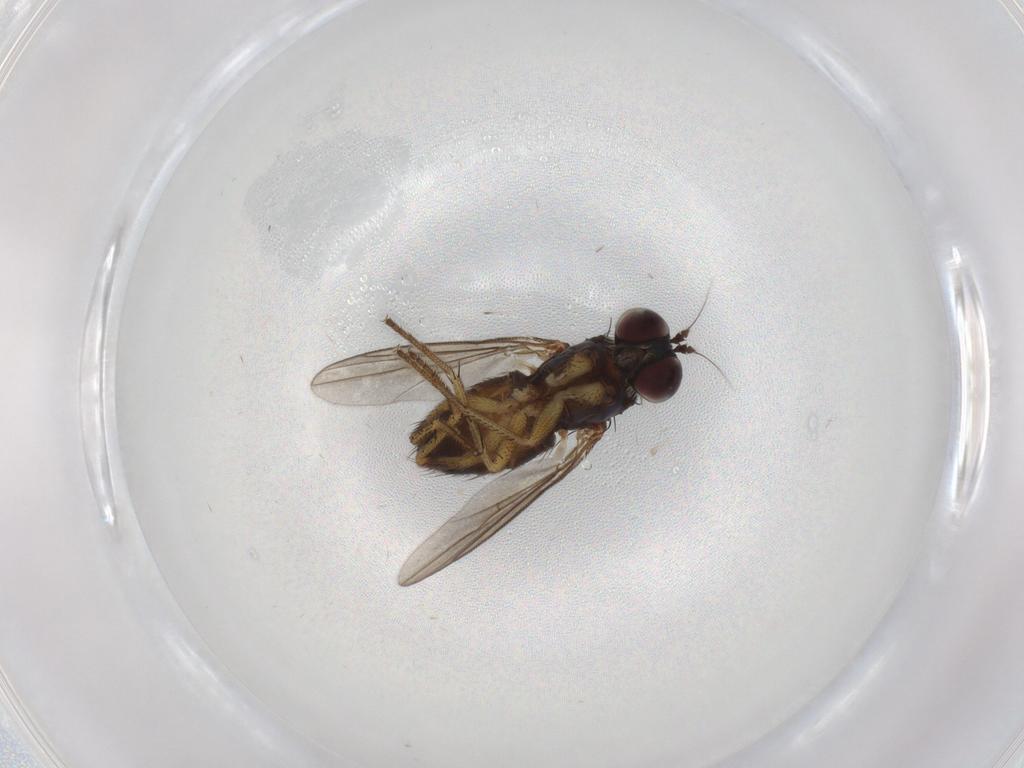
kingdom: Animalia
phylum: Arthropoda
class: Insecta
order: Diptera
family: Dolichopodidae
